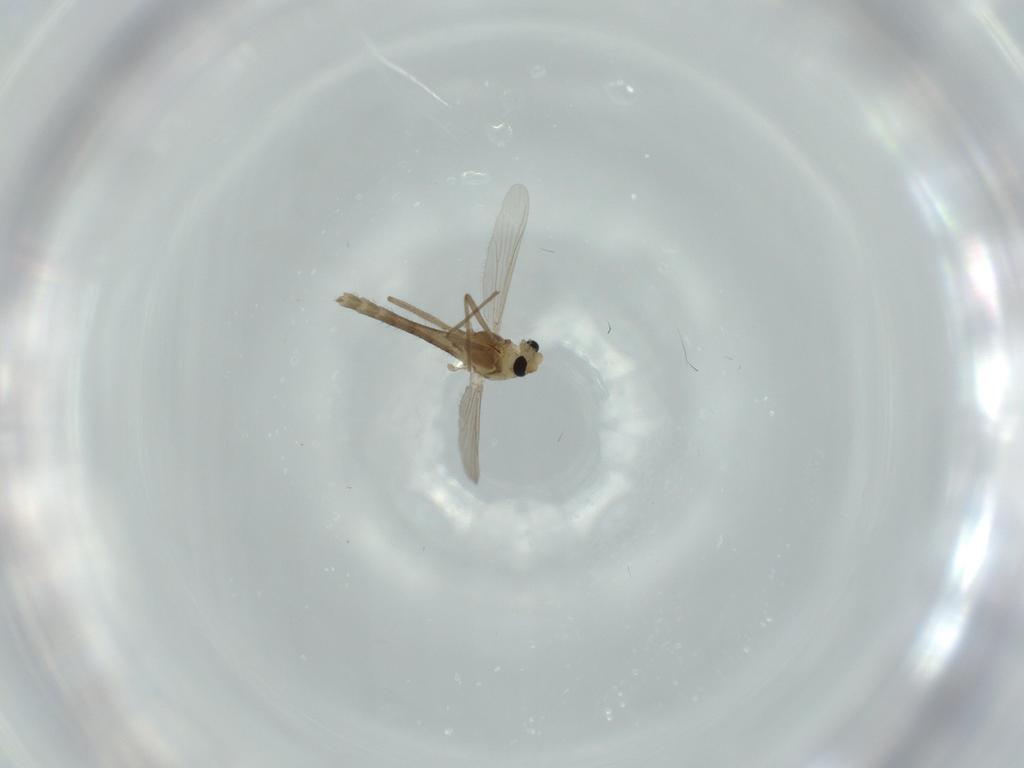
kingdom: Animalia
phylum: Arthropoda
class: Insecta
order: Diptera
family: Chironomidae
